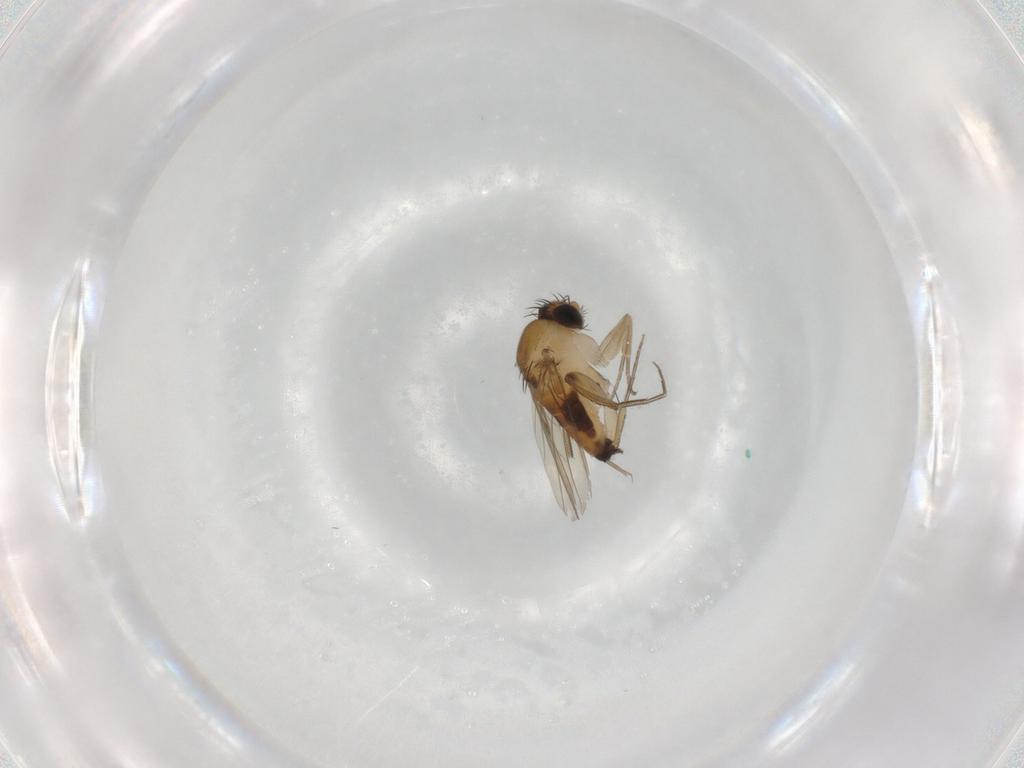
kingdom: Animalia
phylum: Arthropoda
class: Insecta
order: Diptera
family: Phoridae
